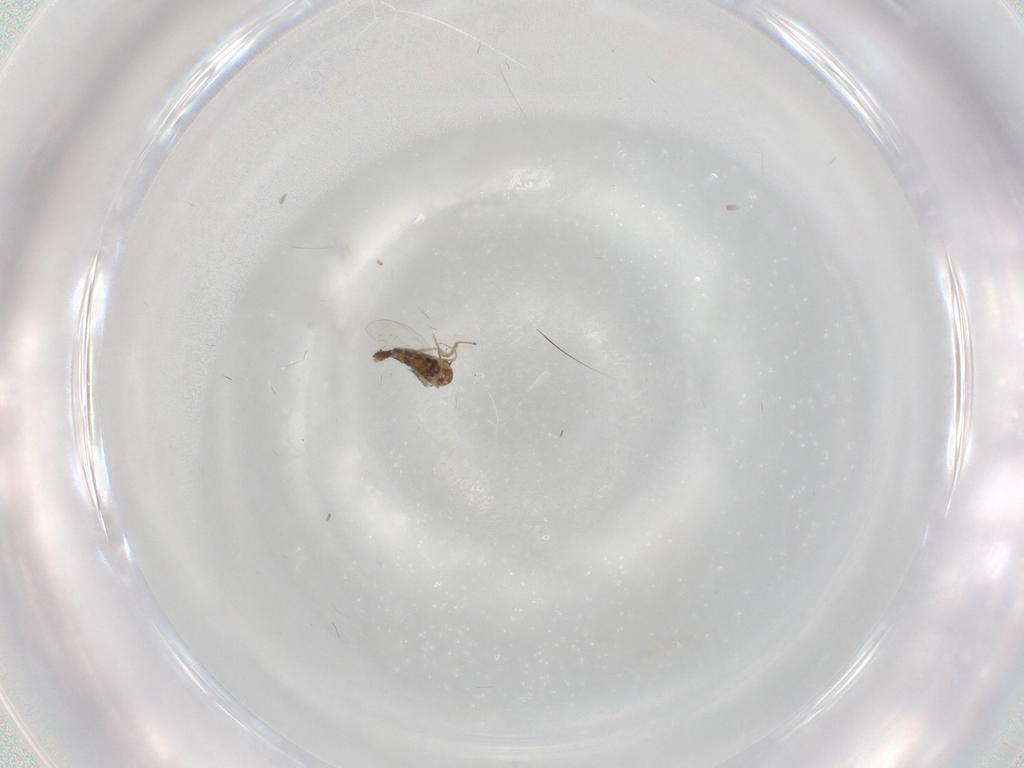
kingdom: Animalia
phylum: Arthropoda
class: Insecta
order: Diptera
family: Chironomidae
